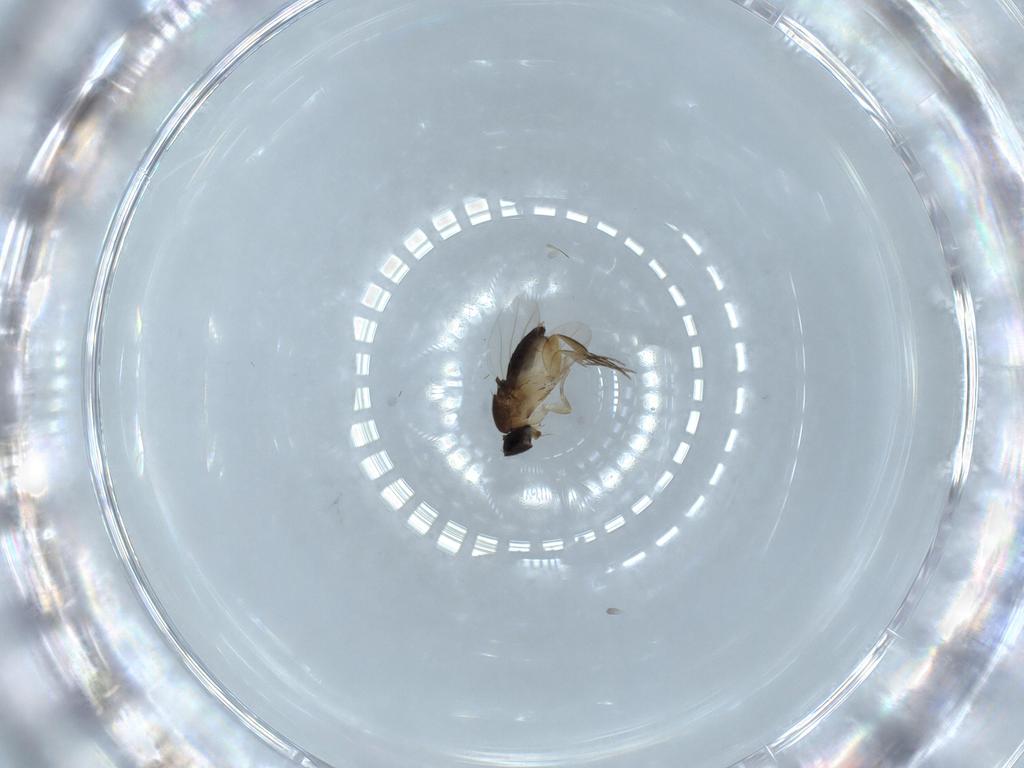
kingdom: Animalia
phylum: Arthropoda
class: Insecta
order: Diptera
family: Phoridae
